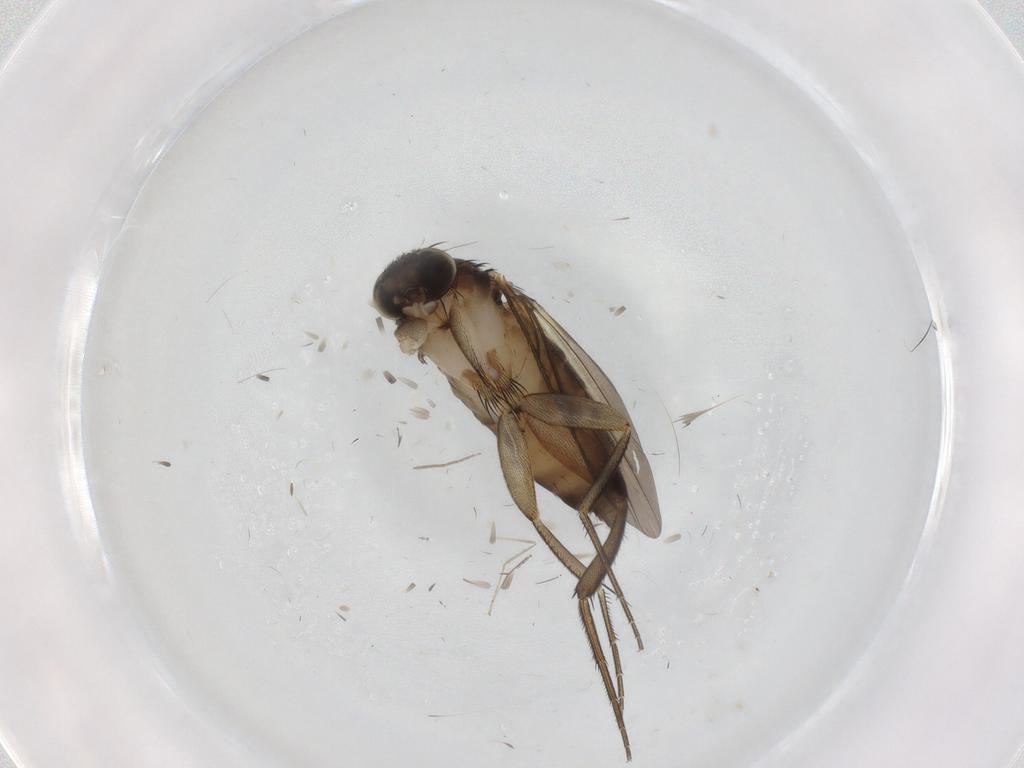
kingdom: Animalia
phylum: Arthropoda
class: Insecta
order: Diptera
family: Phoridae
